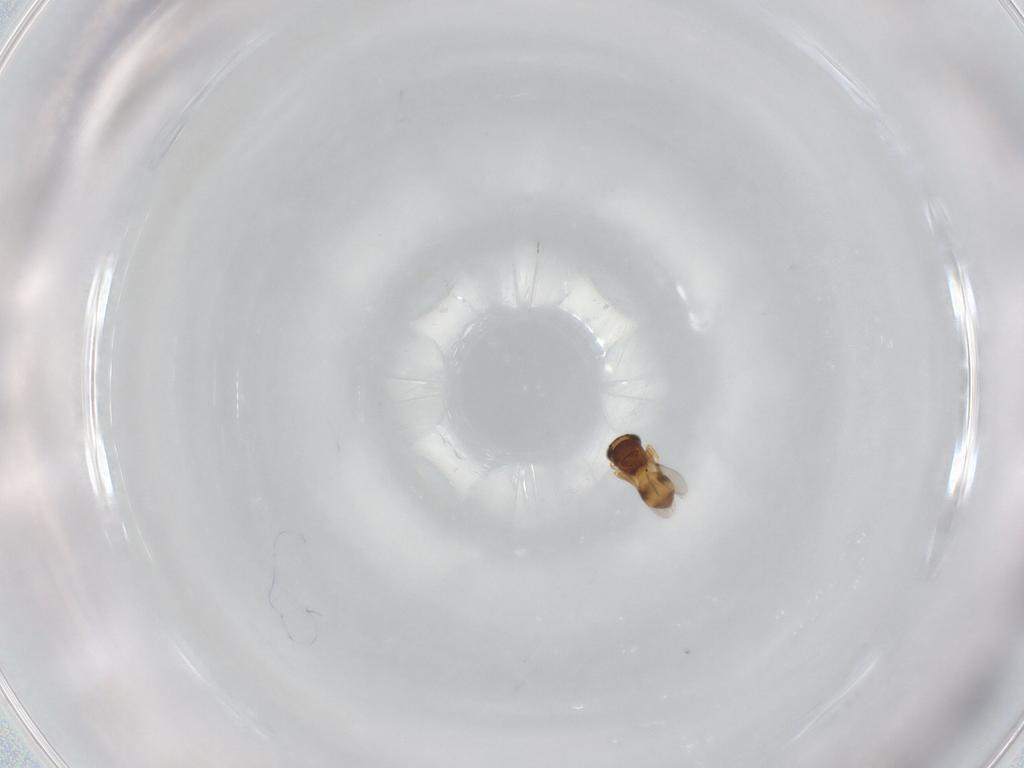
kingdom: Animalia
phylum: Arthropoda
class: Insecta
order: Hymenoptera
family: Scelionidae
